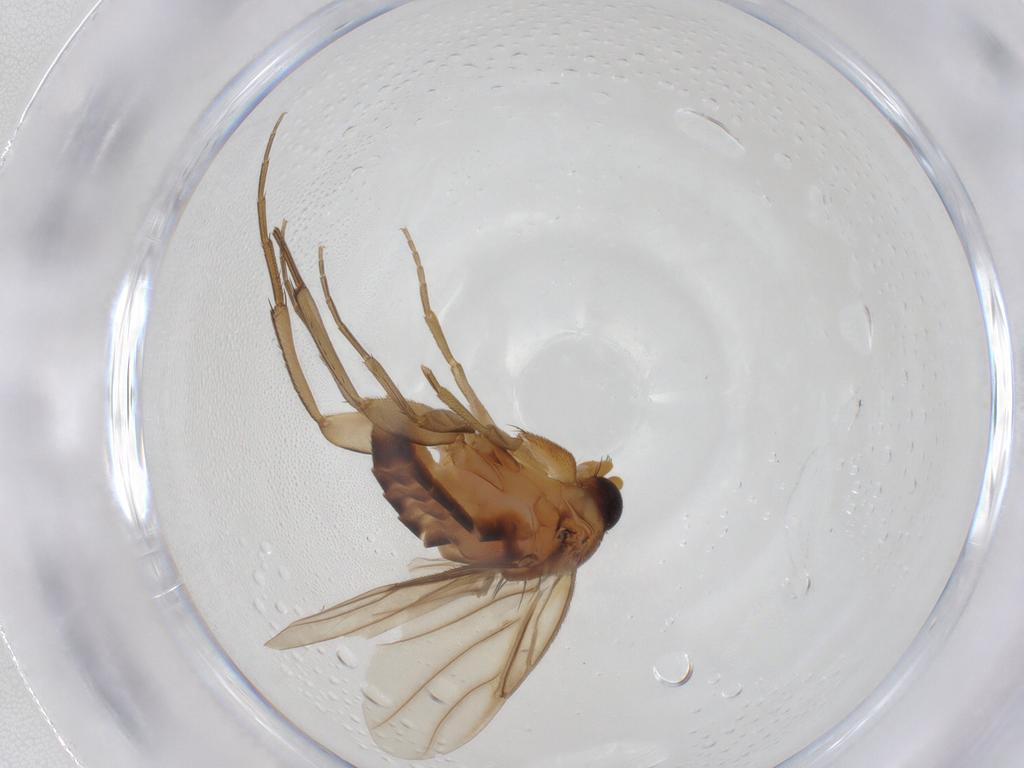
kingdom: Animalia
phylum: Arthropoda
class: Insecta
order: Diptera
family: Phoridae
